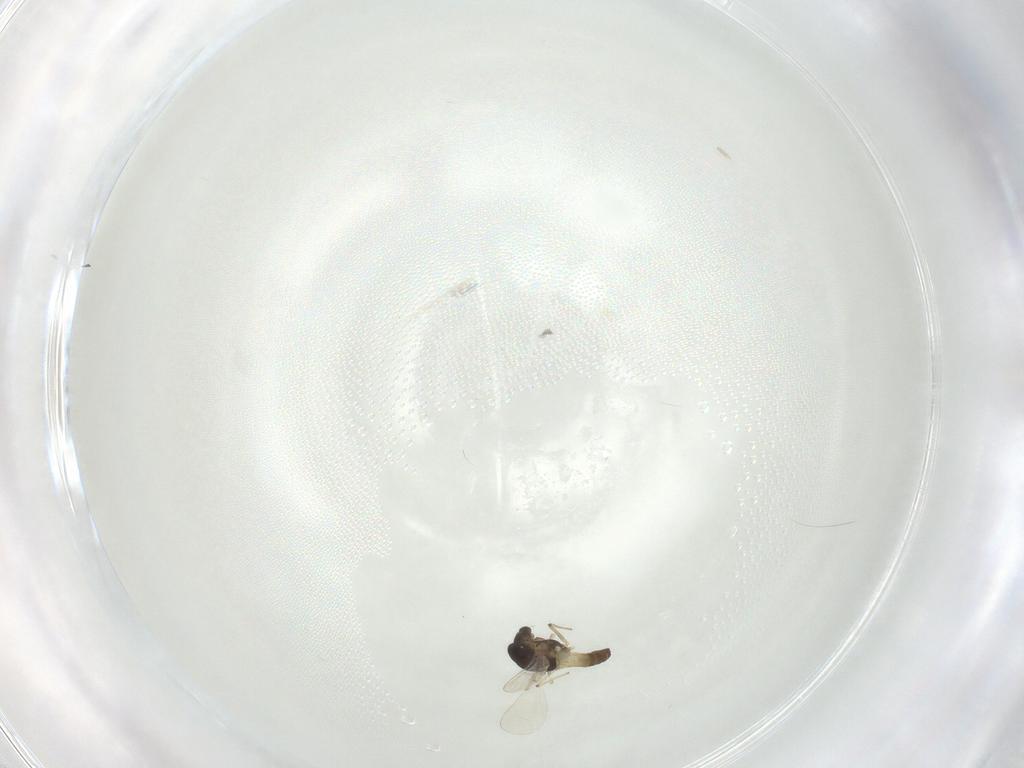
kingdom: Animalia
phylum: Arthropoda
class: Insecta
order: Diptera
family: Chironomidae
